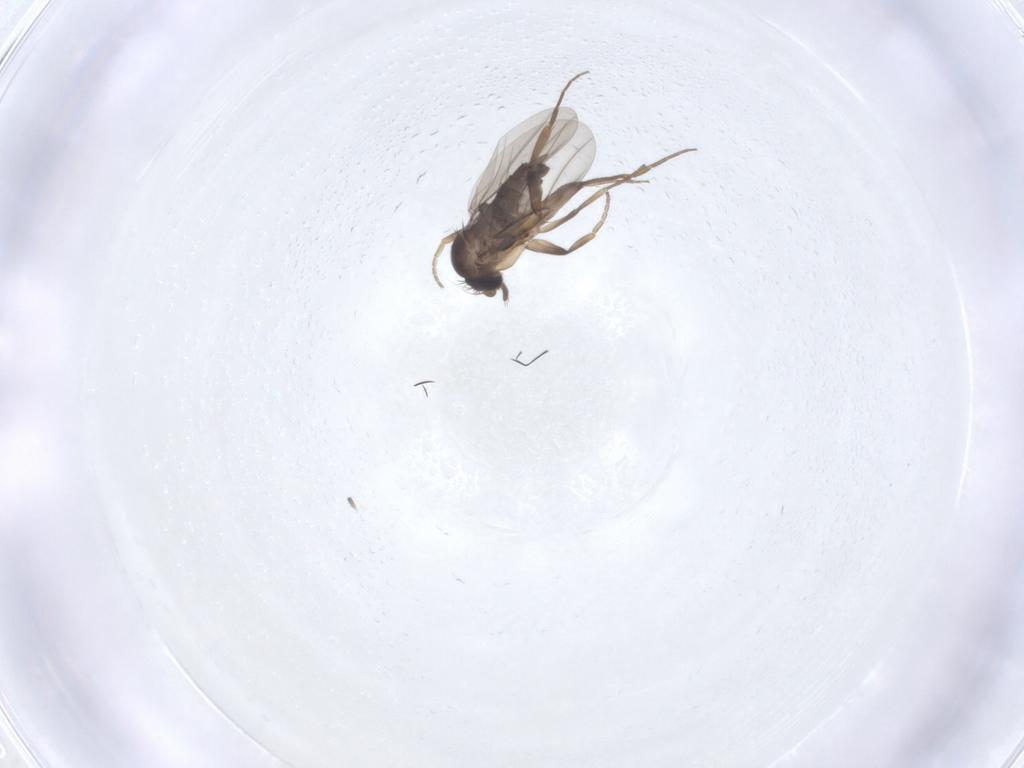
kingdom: Animalia
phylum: Arthropoda
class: Insecta
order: Diptera
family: Phoridae
